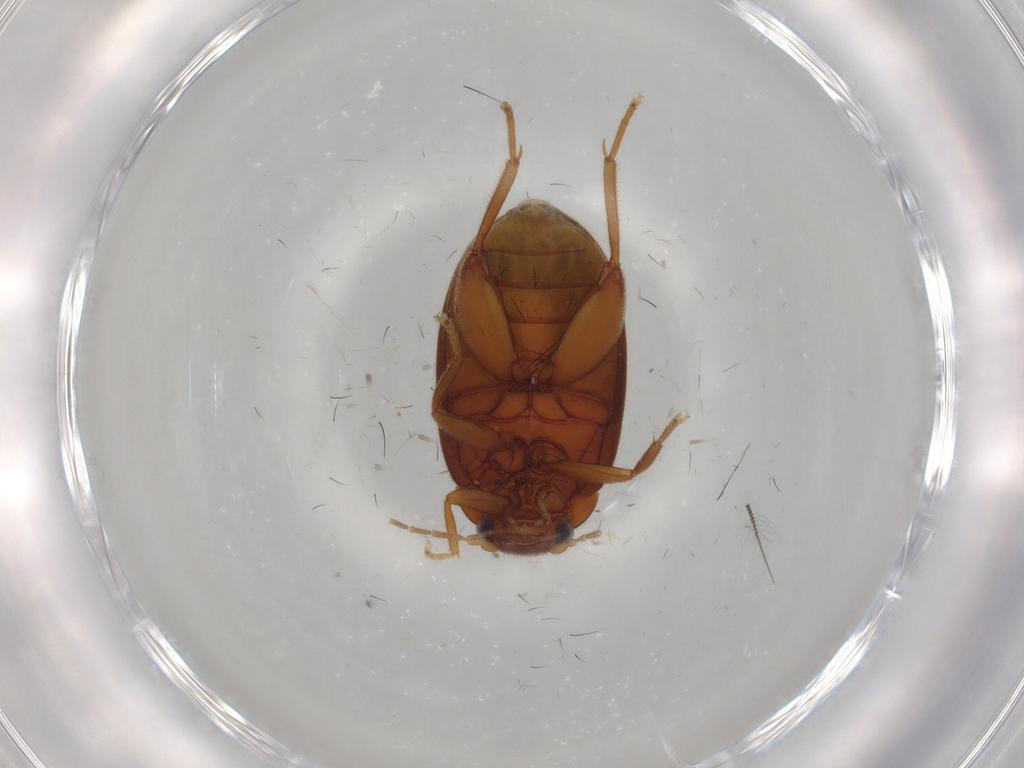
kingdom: Animalia
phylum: Arthropoda
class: Insecta
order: Coleoptera
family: Scirtidae
